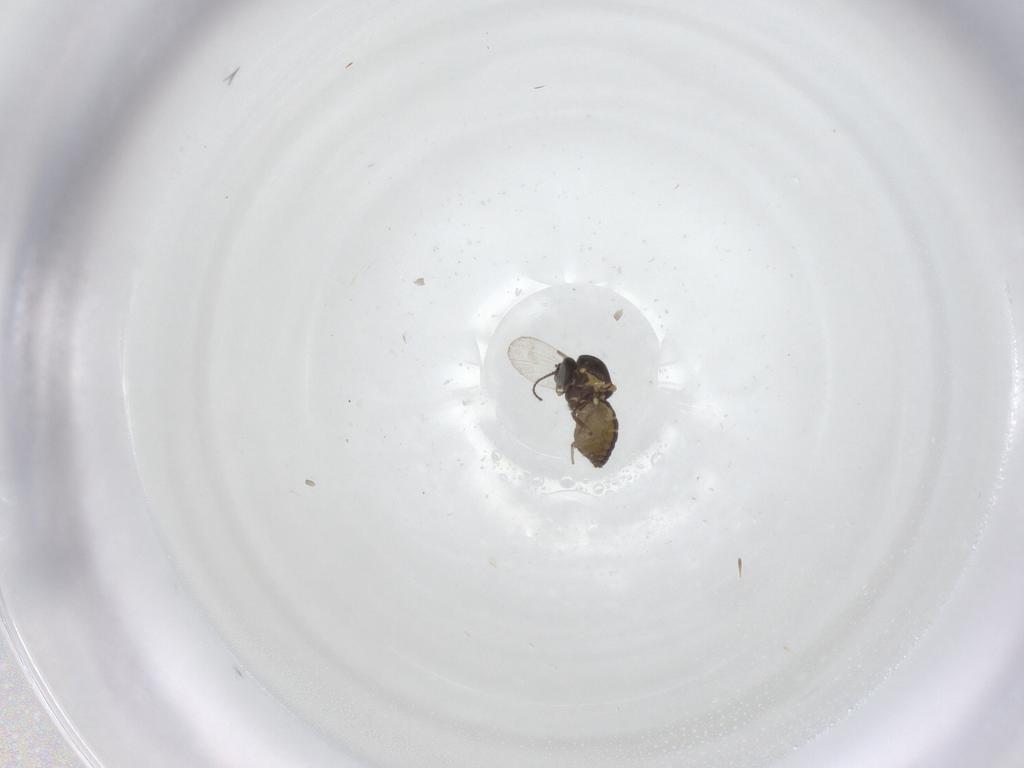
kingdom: Animalia
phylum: Arthropoda
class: Insecta
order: Diptera
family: Ceratopogonidae
